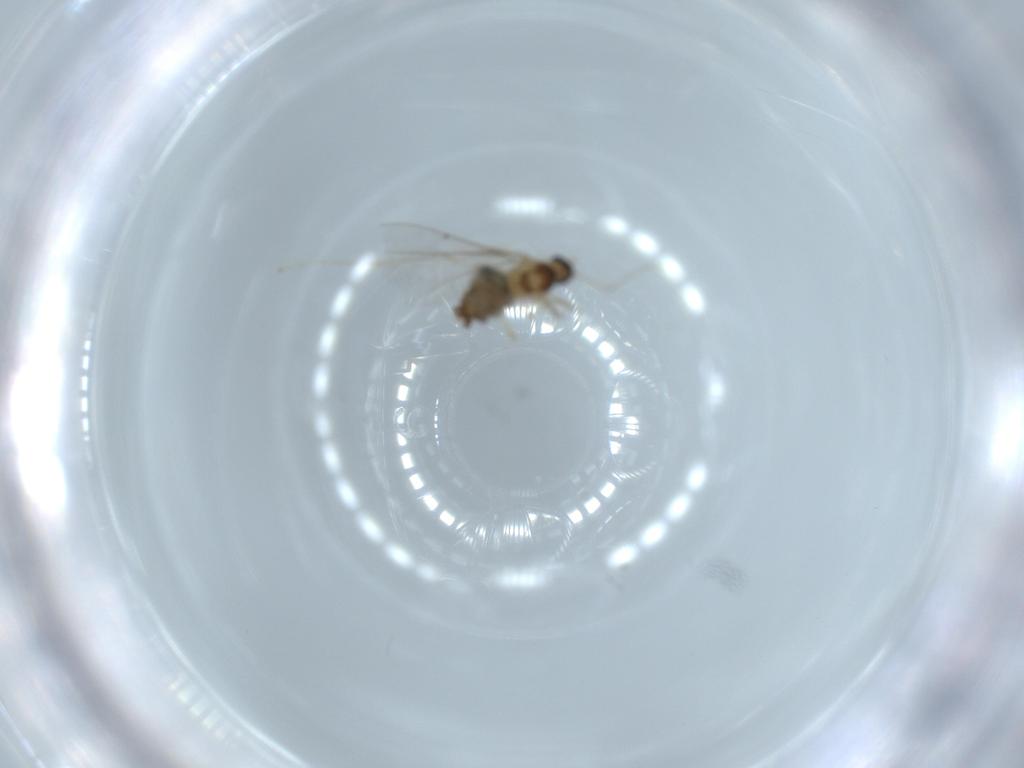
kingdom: Animalia
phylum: Arthropoda
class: Insecta
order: Diptera
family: Cecidomyiidae
